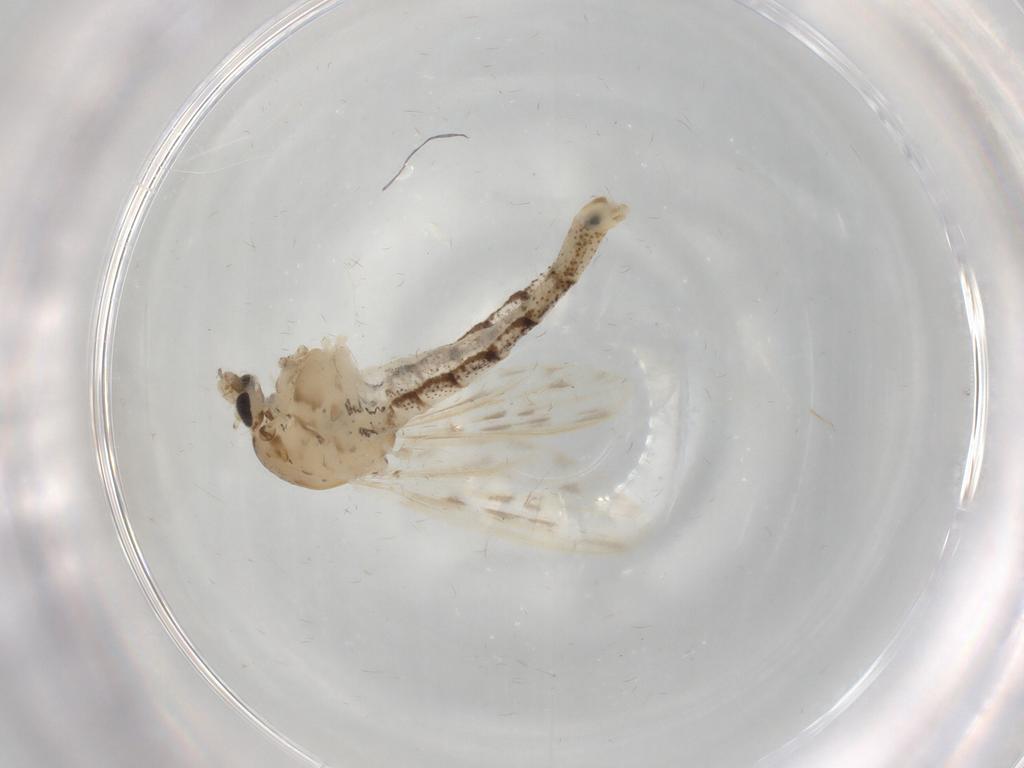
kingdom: Animalia
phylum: Arthropoda
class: Insecta
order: Diptera
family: Chaoboridae
